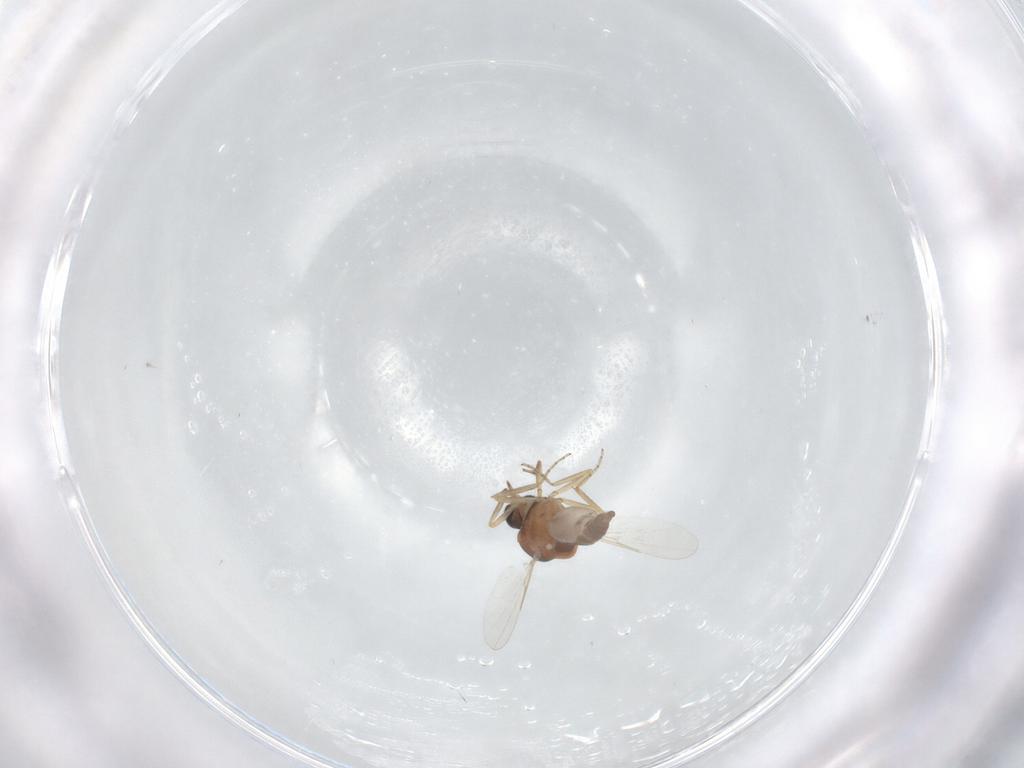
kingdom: Animalia
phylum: Arthropoda
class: Insecta
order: Diptera
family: Ceratopogonidae
